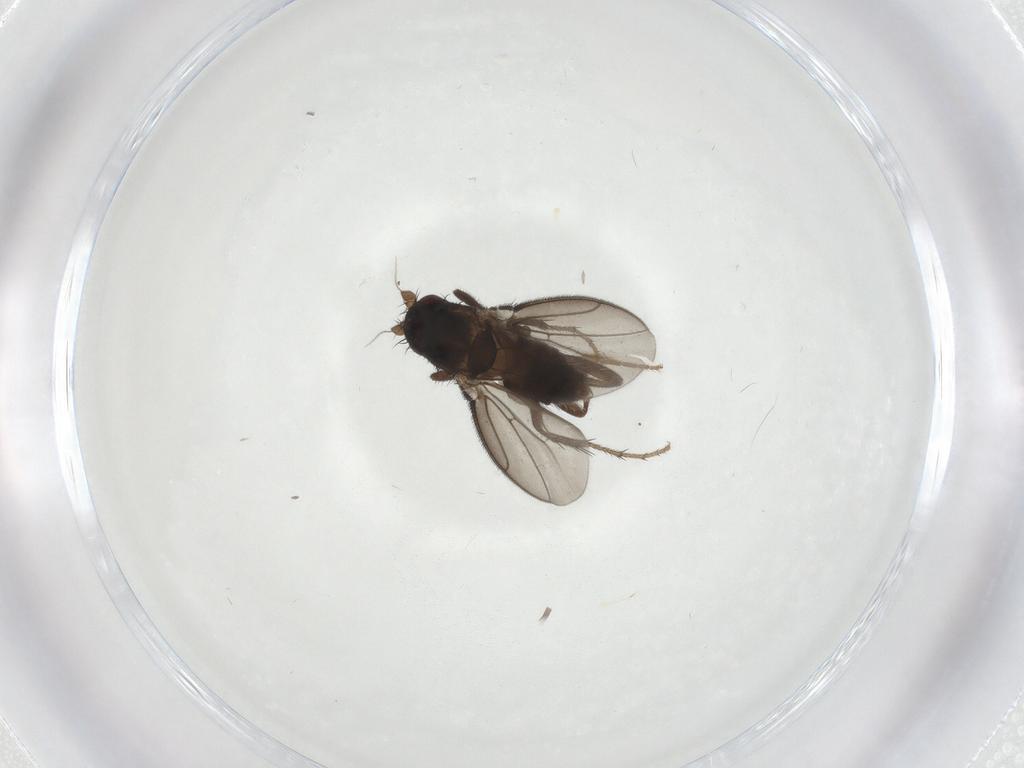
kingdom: Animalia
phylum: Arthropoda
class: Insecta
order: Diptera
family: Sphaeroceridae
